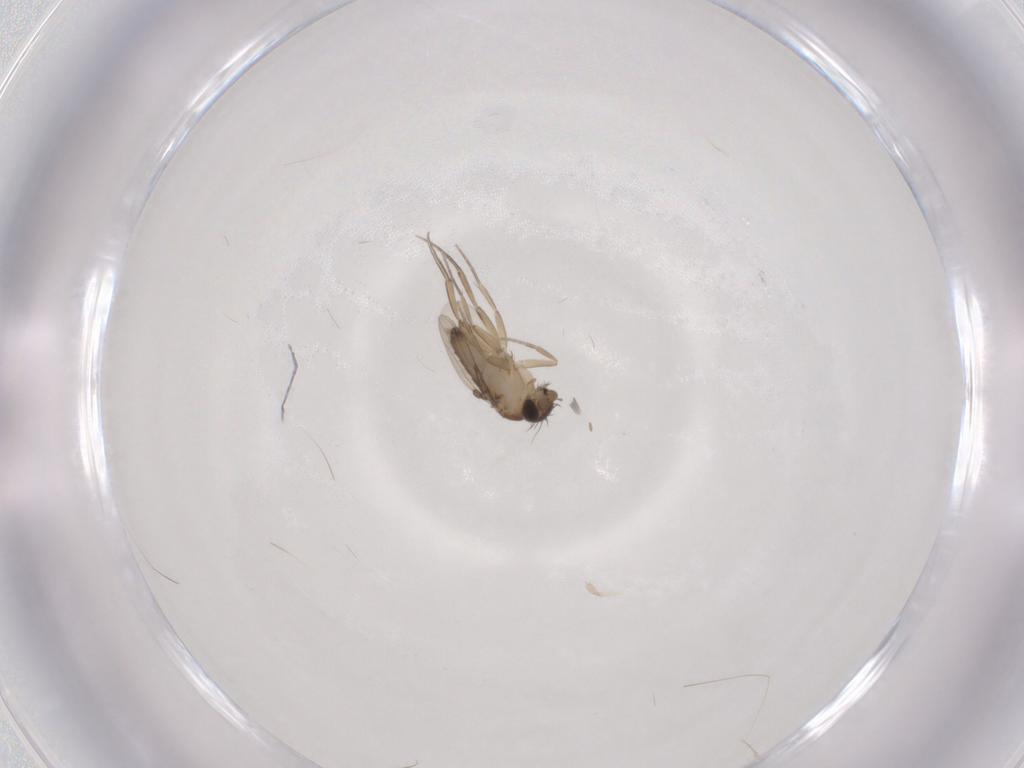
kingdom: Animalia
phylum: Arthropoda
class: Insecta
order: Diptera
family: Phoridae
